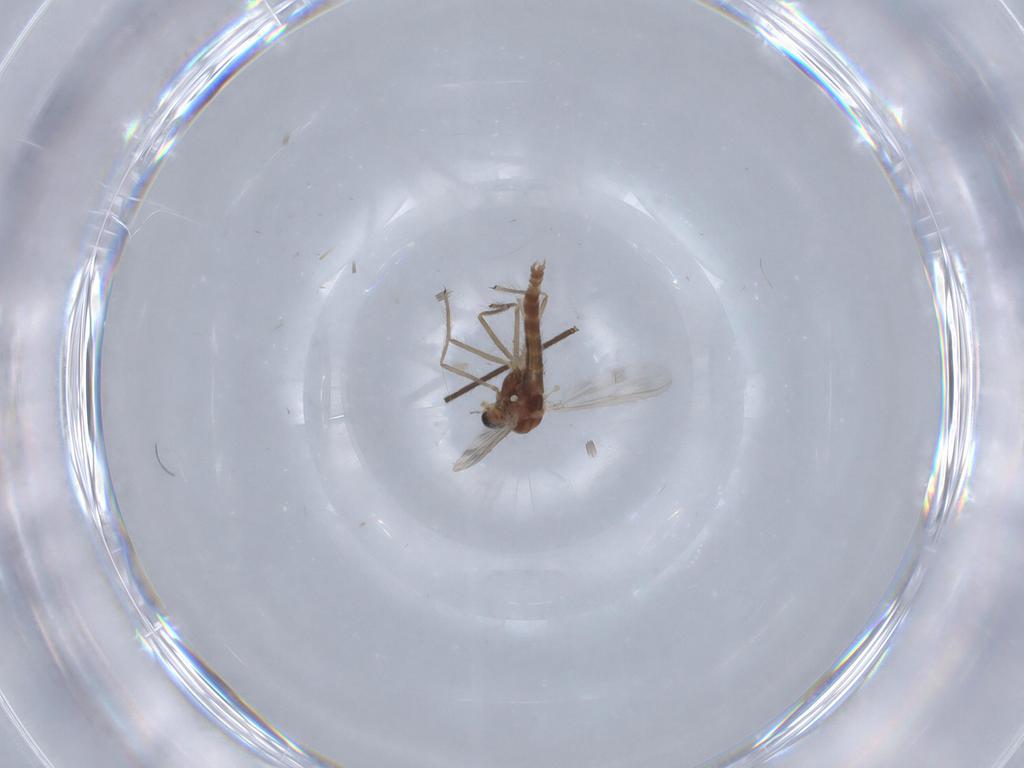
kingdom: Animalia
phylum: Arthropoda
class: Insecta
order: Diptera
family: Chironomidae
